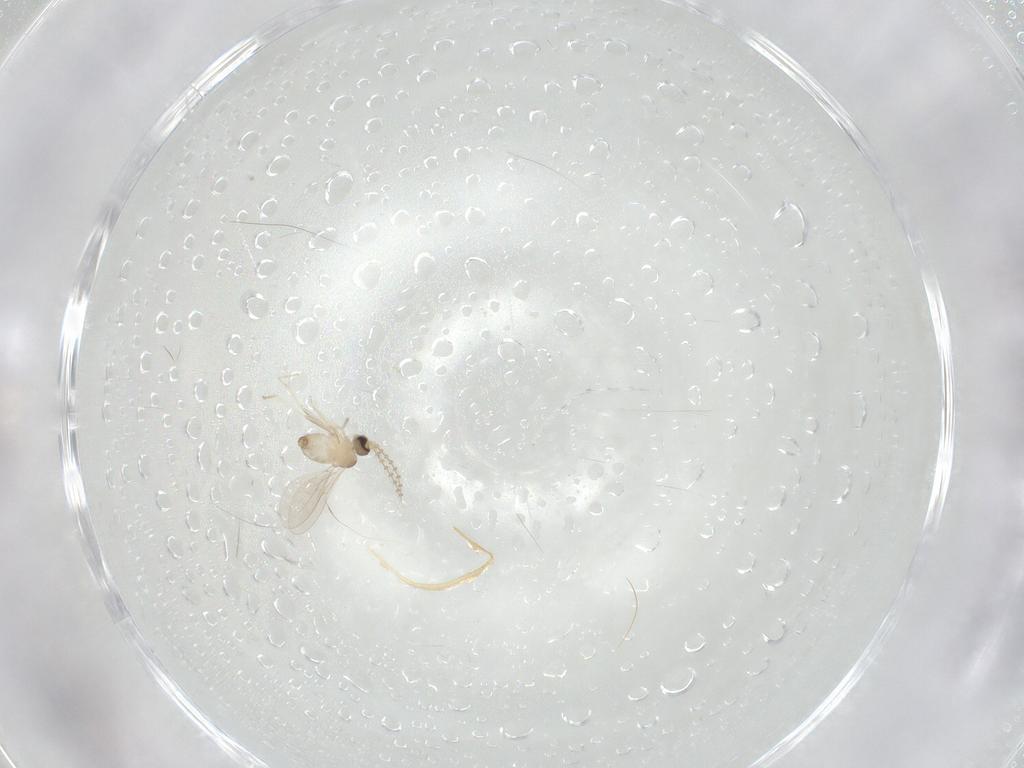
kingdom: Animalia
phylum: Arthropoda
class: Insecta
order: Diptera
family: Cecidomyiidae
